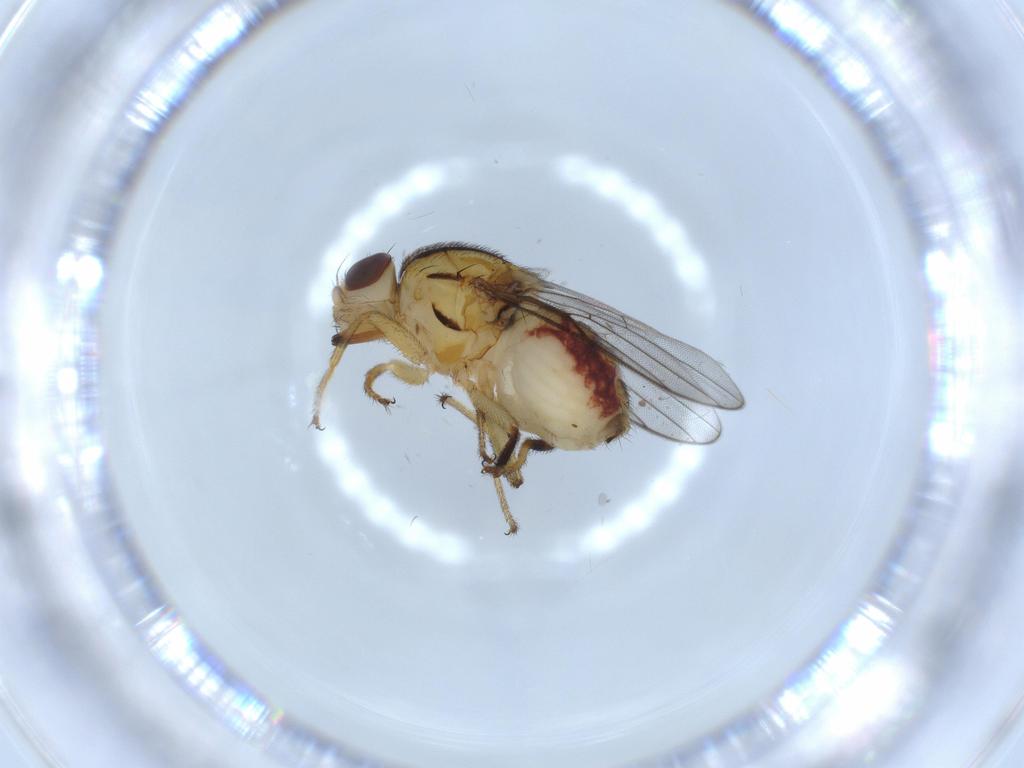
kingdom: Animalia
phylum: Arthropoda
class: Insecta
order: Diptera
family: Chloropidae
